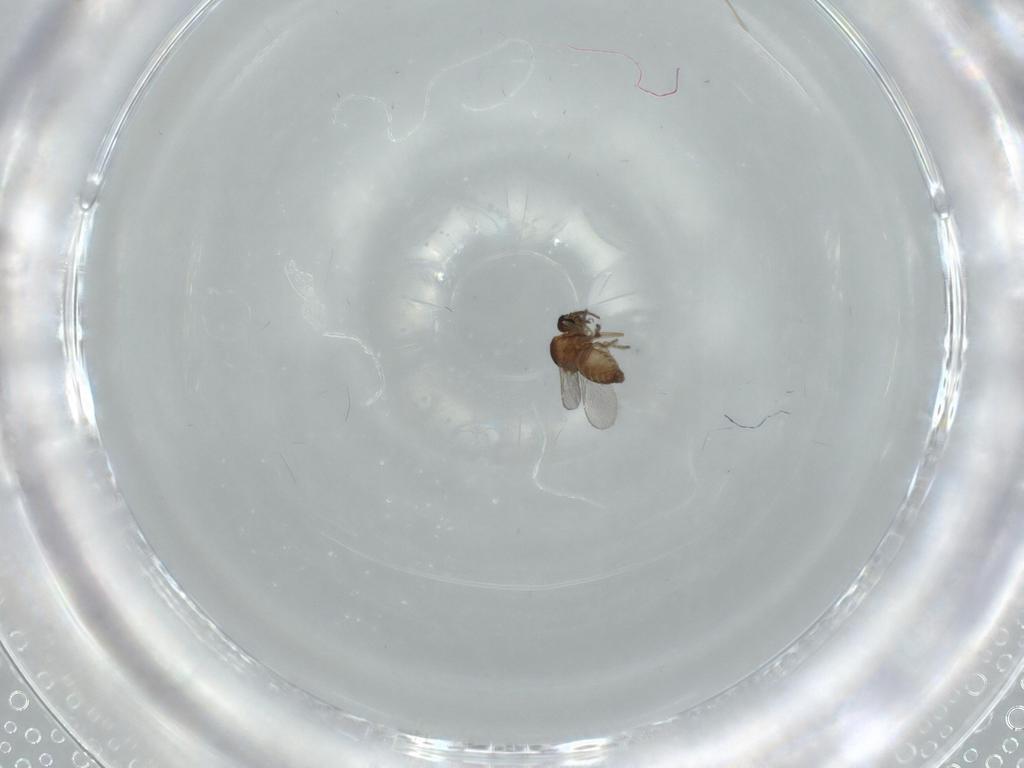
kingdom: Animalia
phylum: Arthropoda
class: Insecta
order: Diptera
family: Ceratopogonidae
